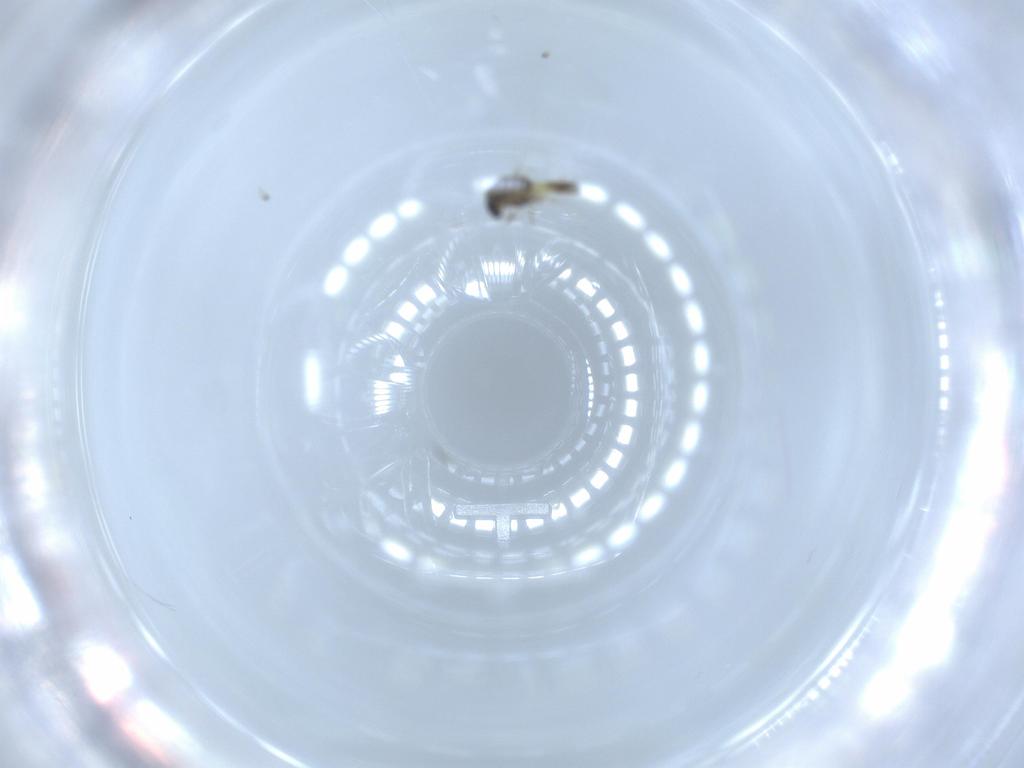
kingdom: Animalia
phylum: Arthropoda
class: Insecta
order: Diptera
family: Chironomidae
